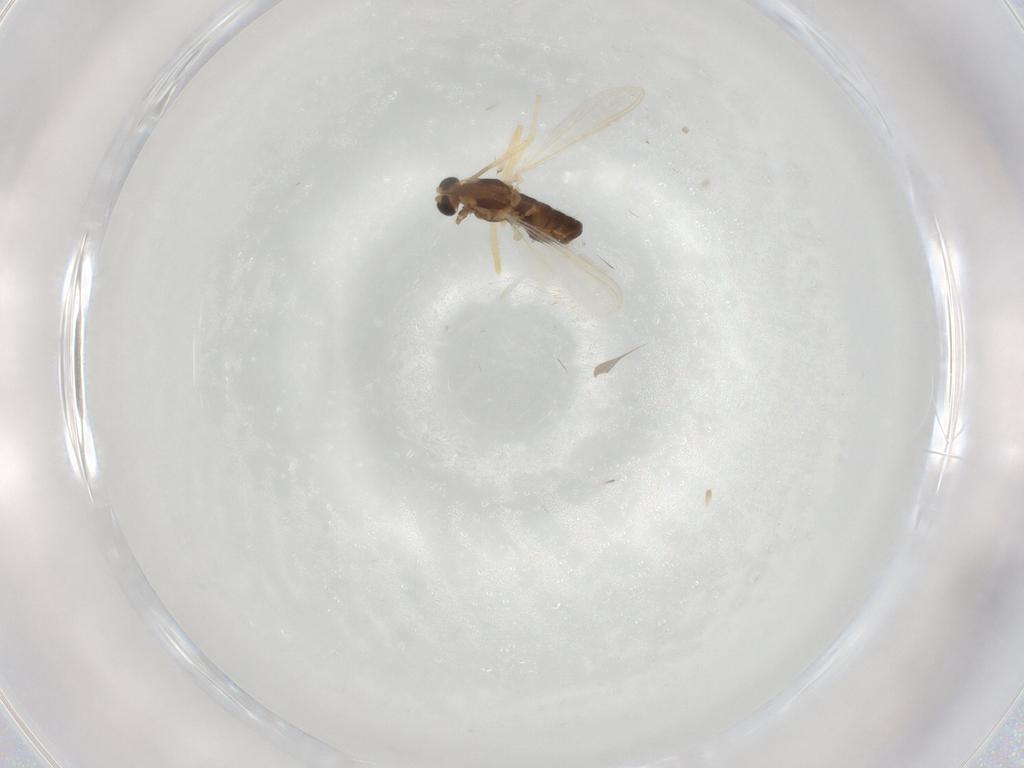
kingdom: Animalia
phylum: Arthropoda
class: Insecta
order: Diptera
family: Chironomidae
